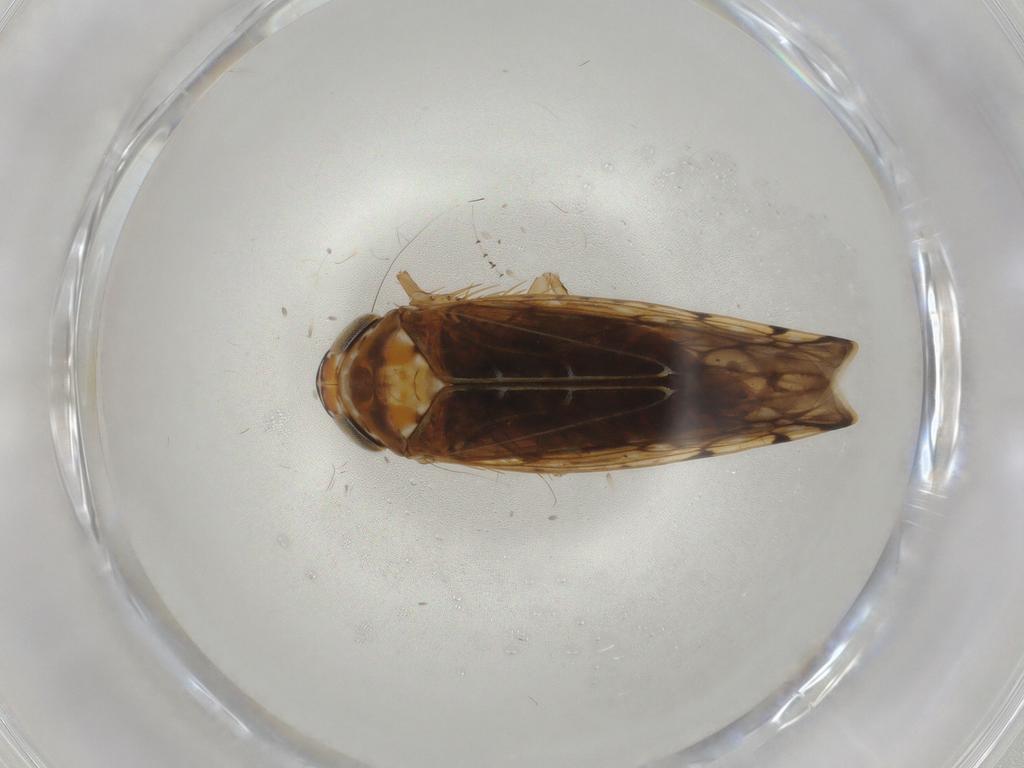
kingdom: Animalia
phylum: Arthropoda
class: Insecta
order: Hemiptera
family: Cicadellidae
